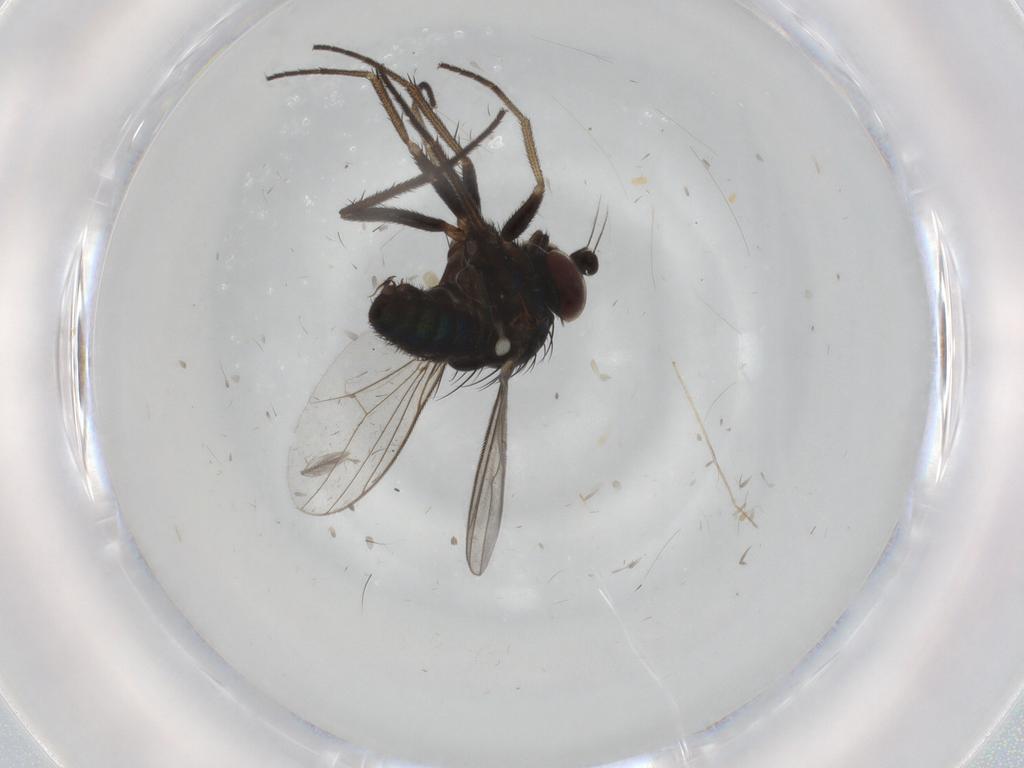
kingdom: Animalia
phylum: Arthropoda
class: Insecta
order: Diptera
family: Dolichopodidae
